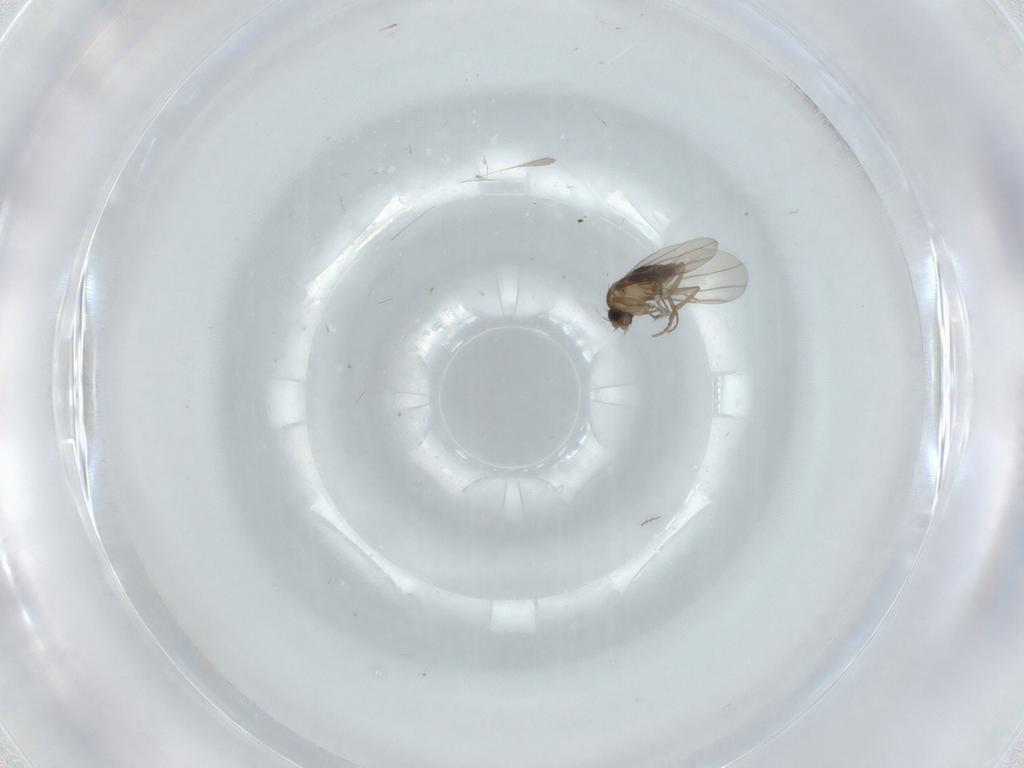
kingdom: Animalia
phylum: Arthropoda
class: Insecta
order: Diptera
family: Phoridae
